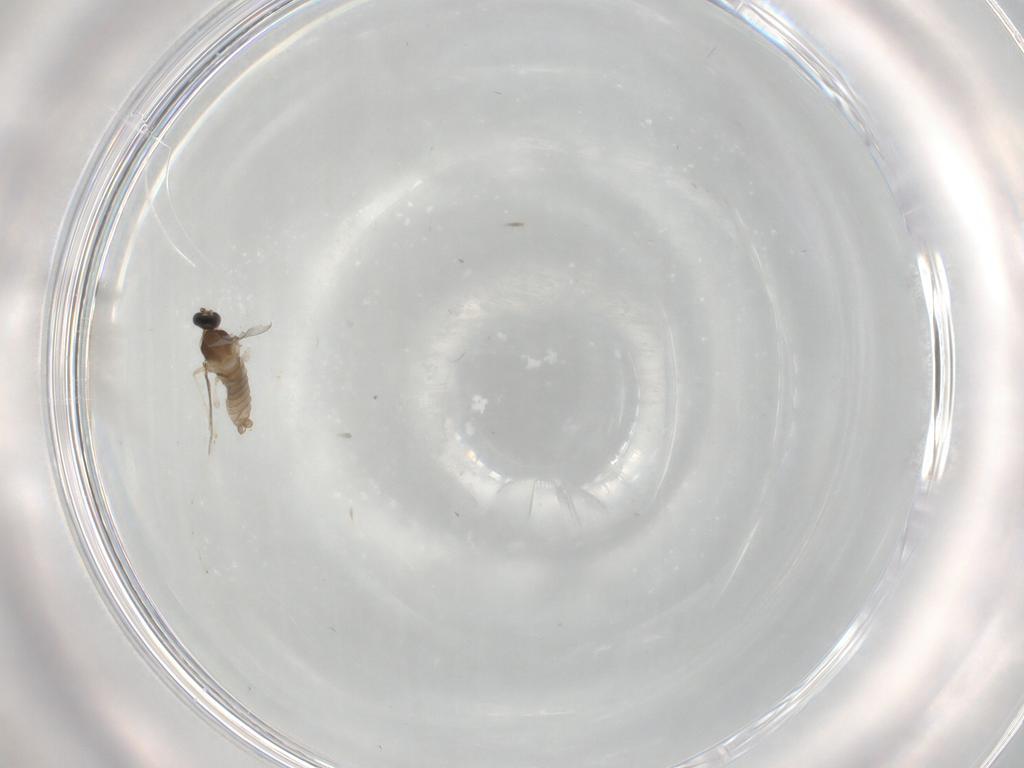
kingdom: Animalia
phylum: Arthropoda
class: Insecta
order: Diptera
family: Cecidomyiidae
